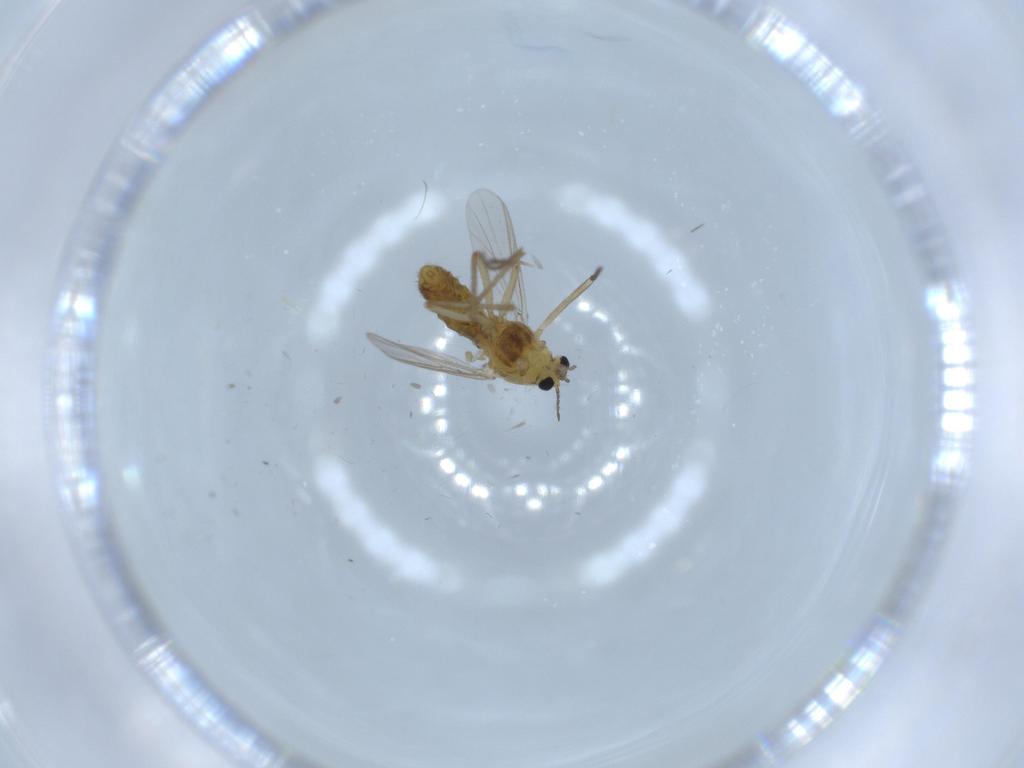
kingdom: Animalia
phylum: Arthropoda
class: Insecta
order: Diptera
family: Chironomidae
